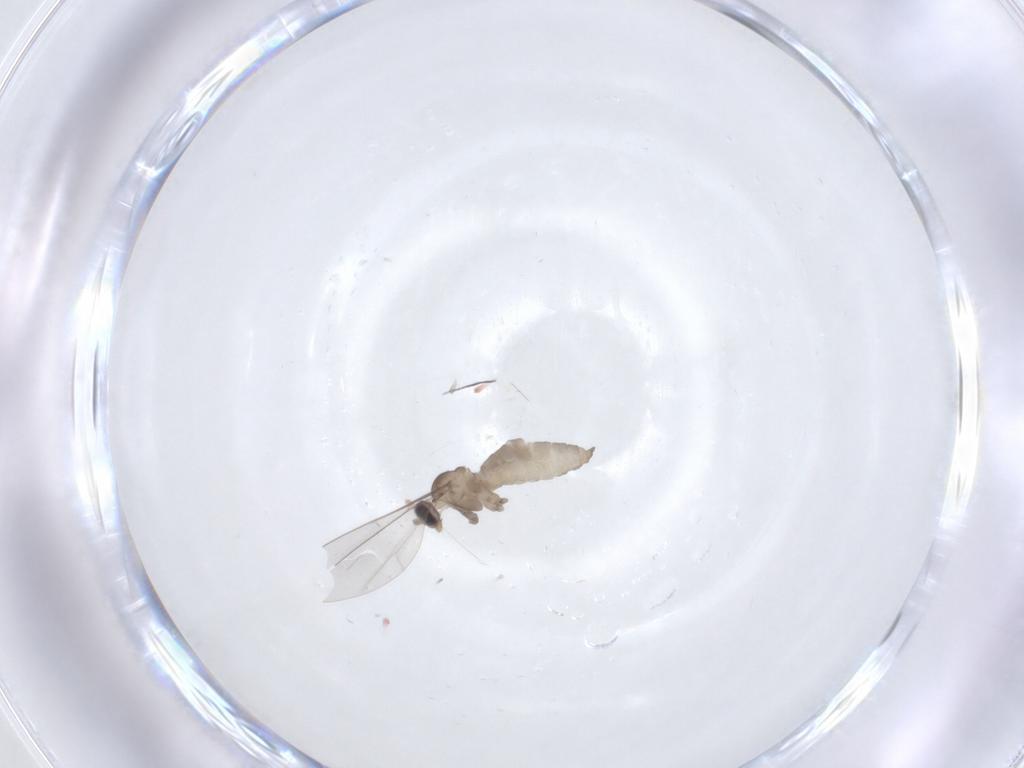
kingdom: Animalia
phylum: Arthropoda
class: Insecta
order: Diptera
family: Cecidomyiidae
